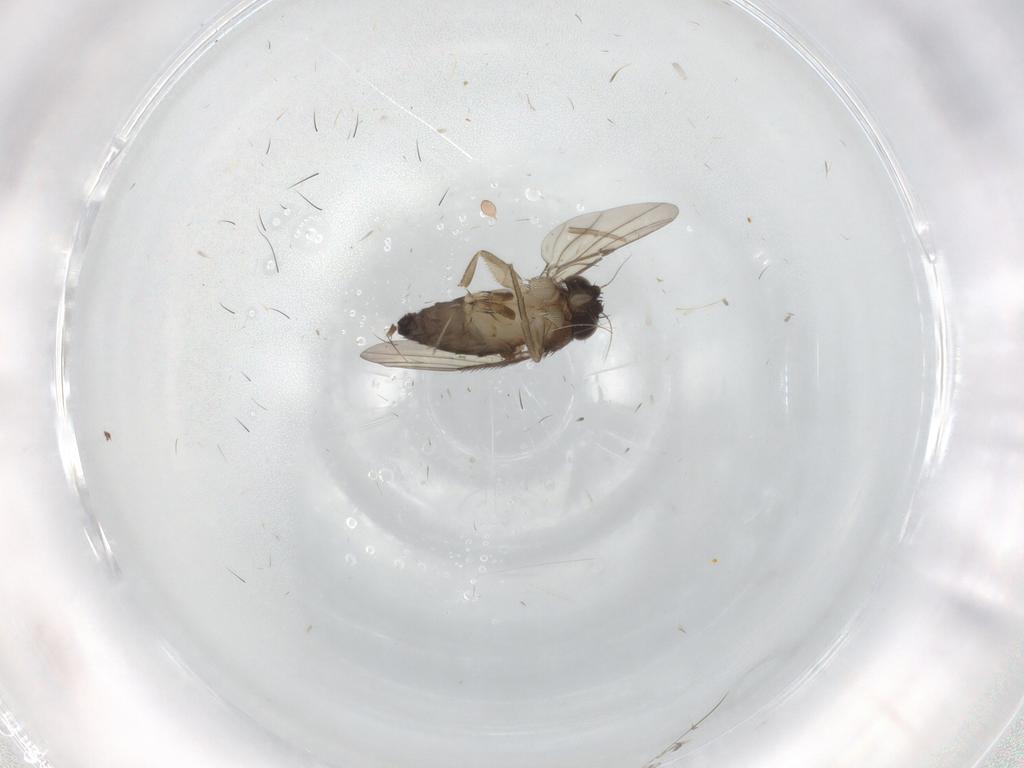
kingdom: Animalia
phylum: Arthropoda
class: Insecta
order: Diptera
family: Phoridae
